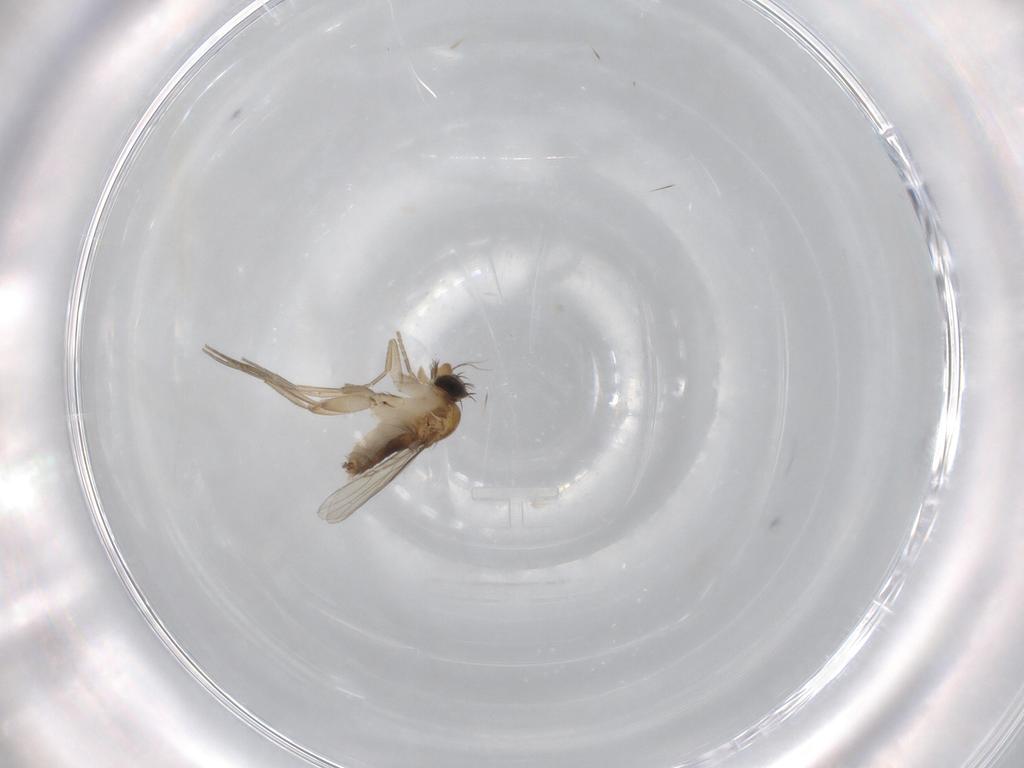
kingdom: Animalia
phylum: Arthropoda
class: Insecta
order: Diptera
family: Phoridae
